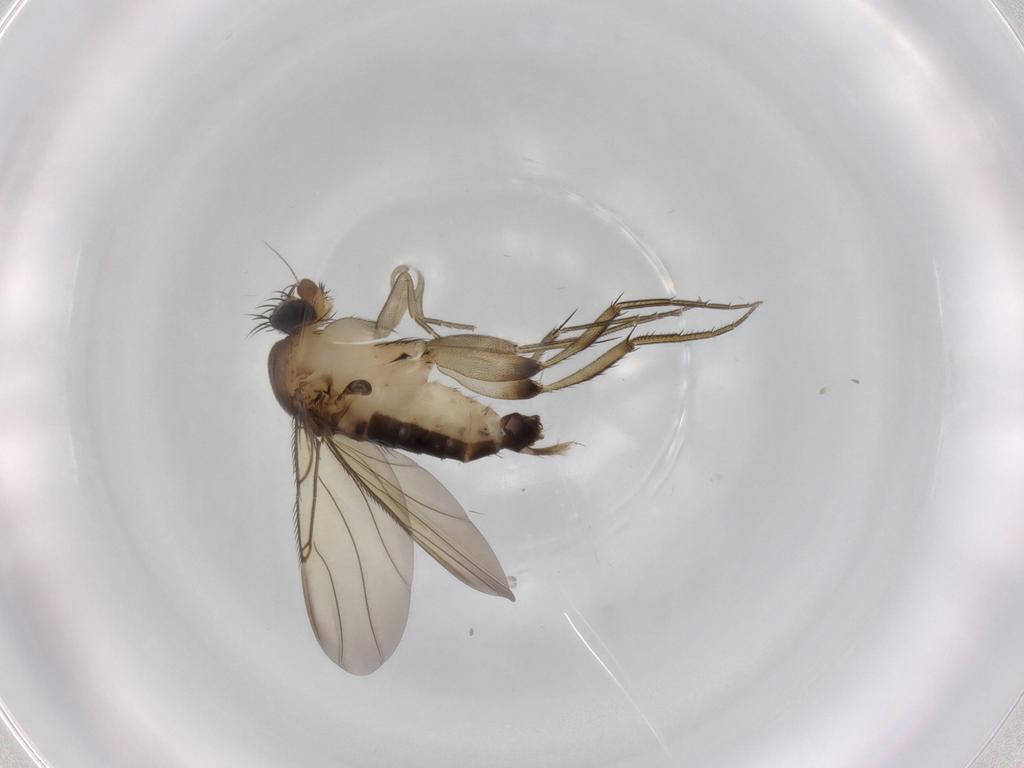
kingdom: Animalia
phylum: Arthropoda
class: Insecta
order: Diptera
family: Phoridae
